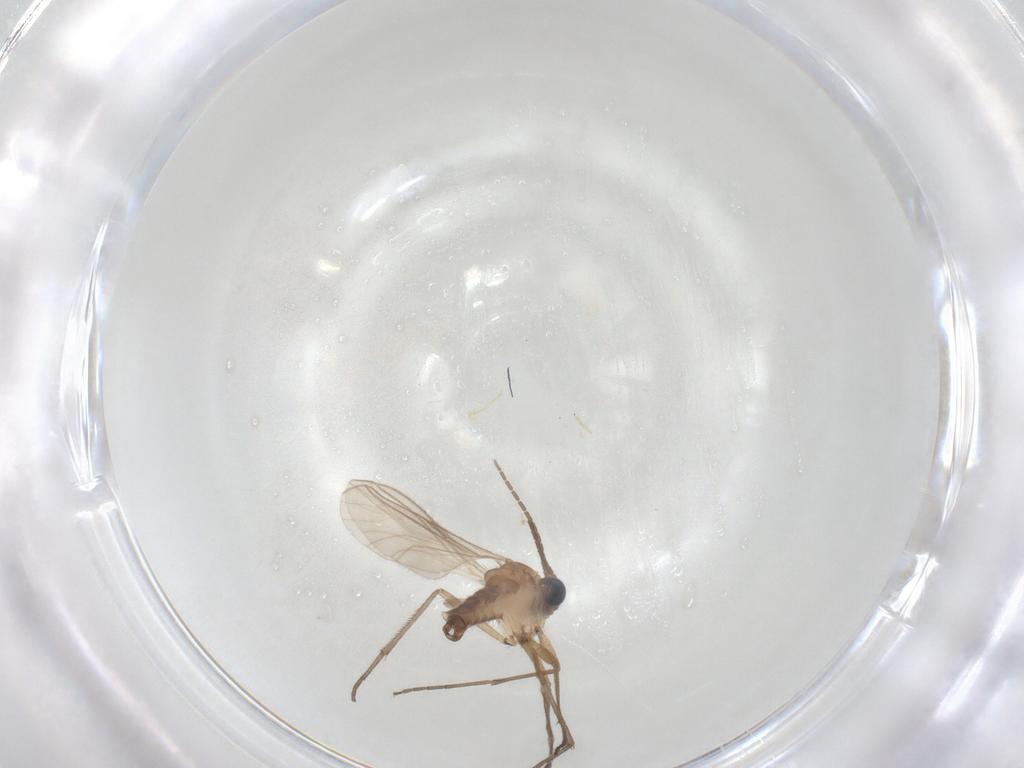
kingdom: Animalia
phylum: Arthropoda
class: Insecta
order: Diptera
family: Sciaridae
